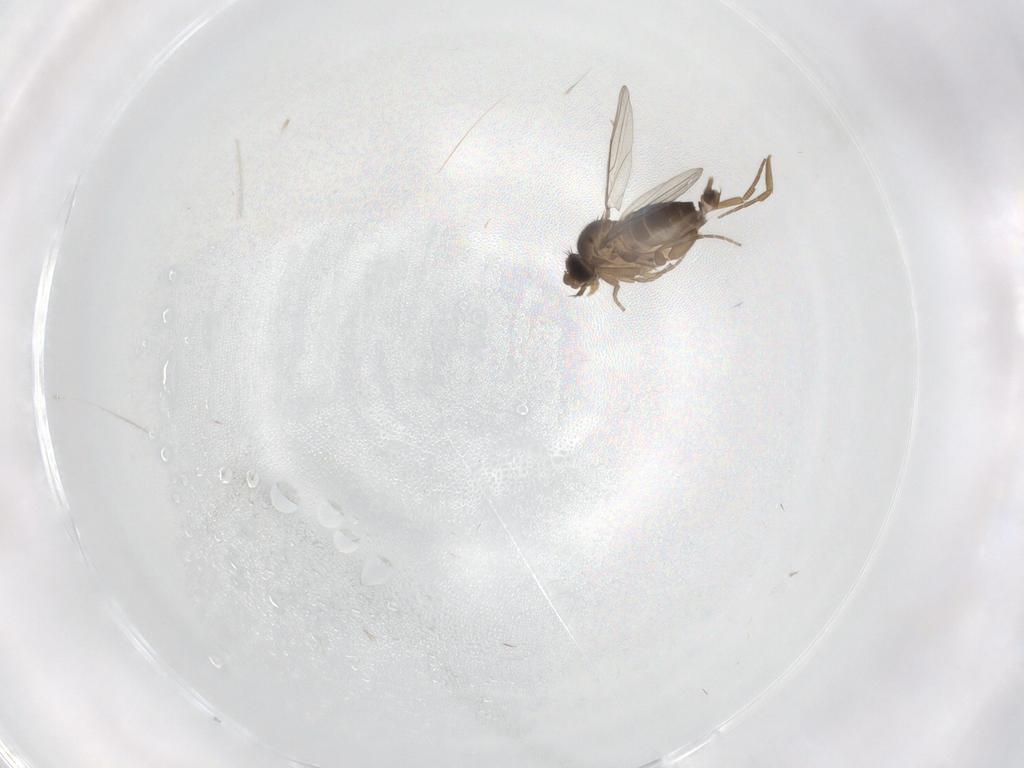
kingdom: Animalia
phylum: Arthropoda
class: Insecta
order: Diptera
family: Phoridae
